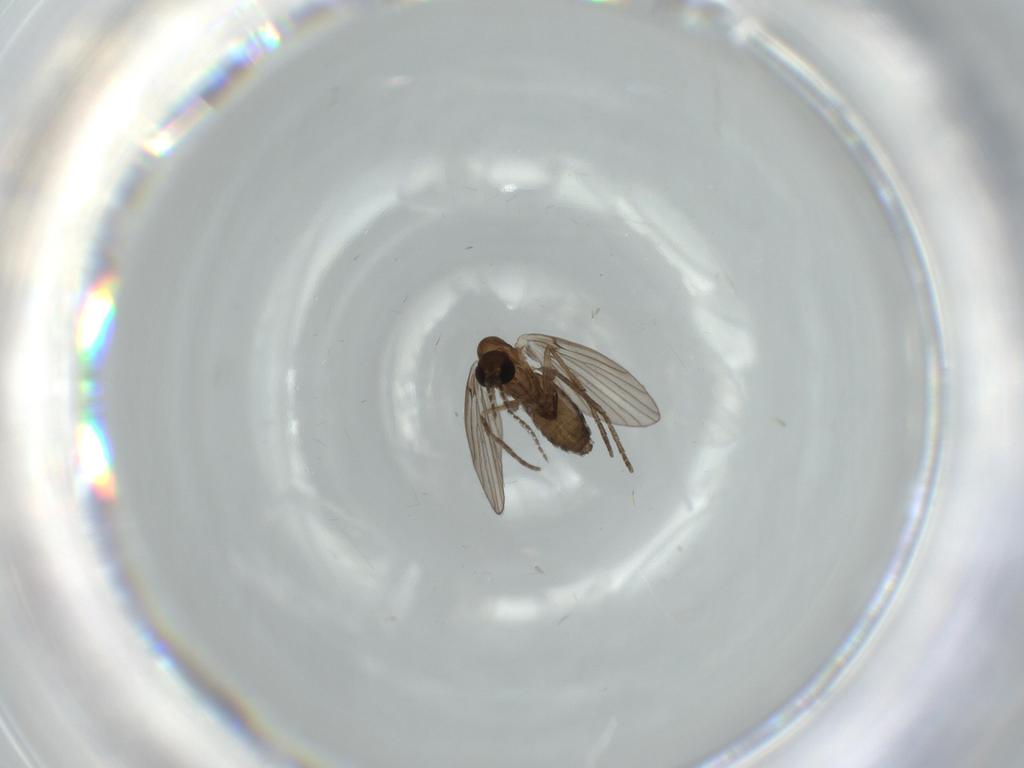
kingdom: Animalia
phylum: Arthropoda
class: Insecta
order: Diptera
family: Psychodidae
